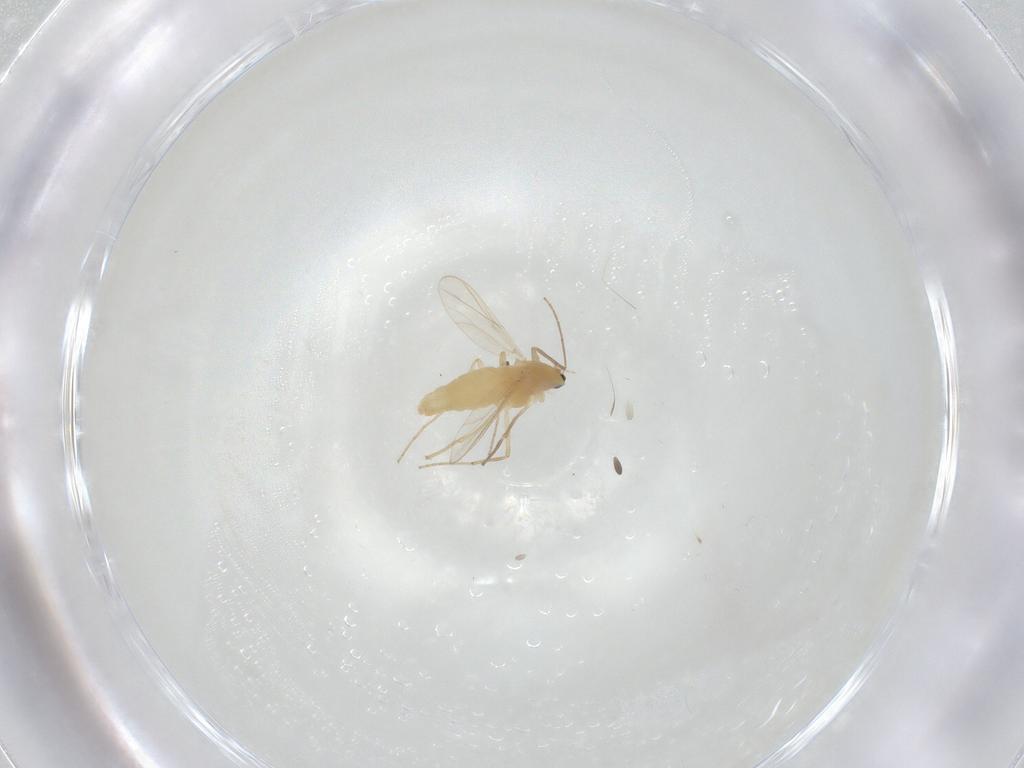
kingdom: Animalia
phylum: Arthropoda
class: Insecta
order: Diptera
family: Chironomidae
